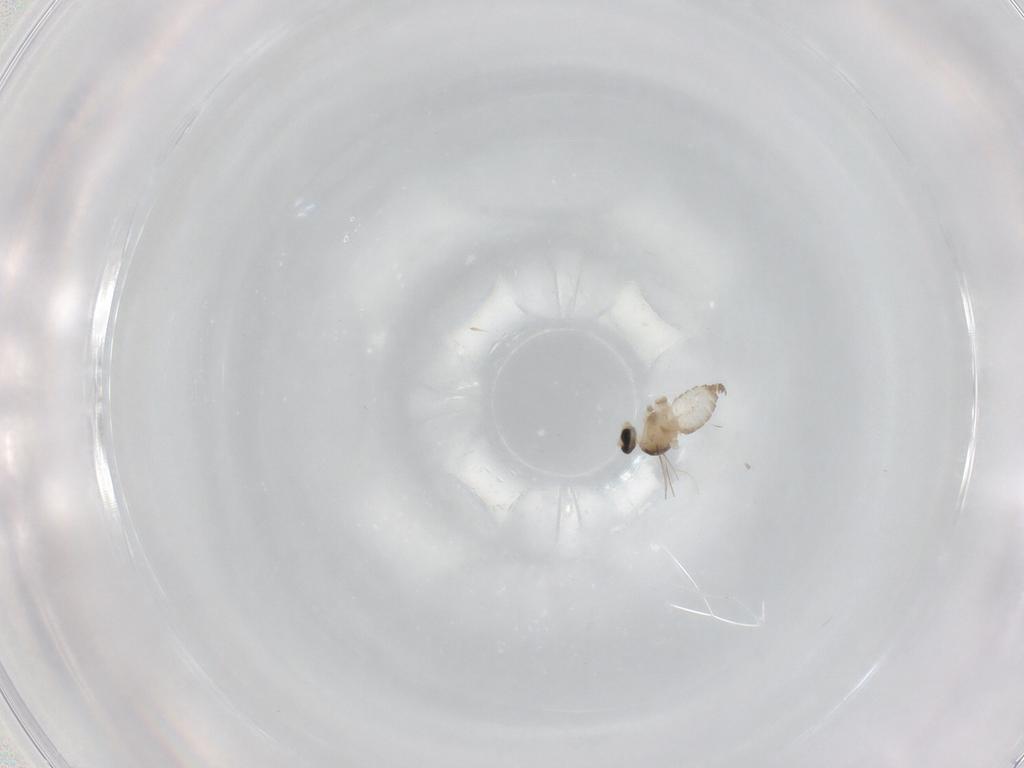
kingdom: Animalia
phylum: Arthropoda
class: Insecta
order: Diptera
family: Cecidomyiidae
